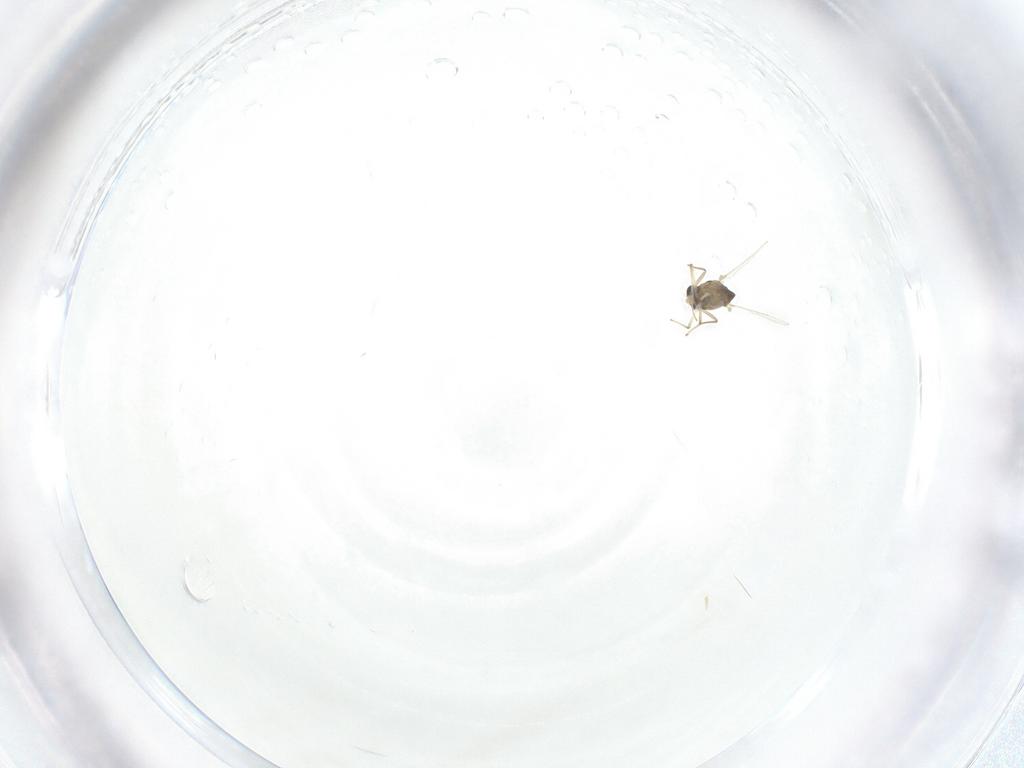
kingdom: Animalia
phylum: Arthropoda
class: Insecta
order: Diptera
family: Chironomidae
